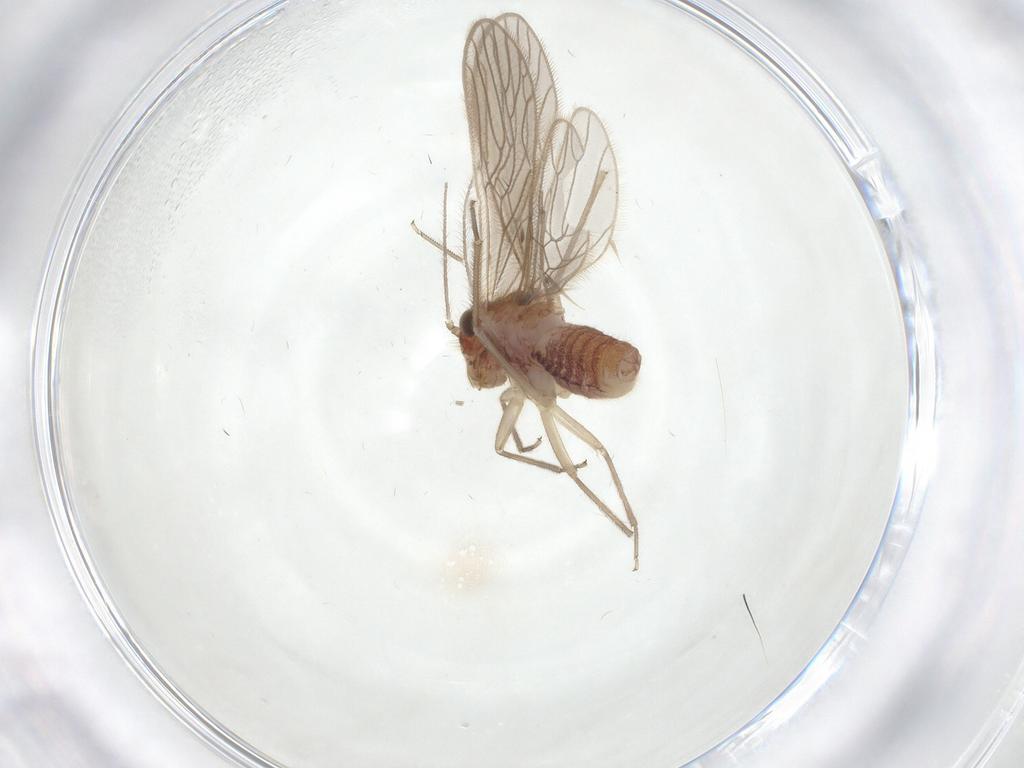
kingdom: Animalia
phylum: Arthropoda
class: Insecta
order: Psocodea
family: Epipsocidae
